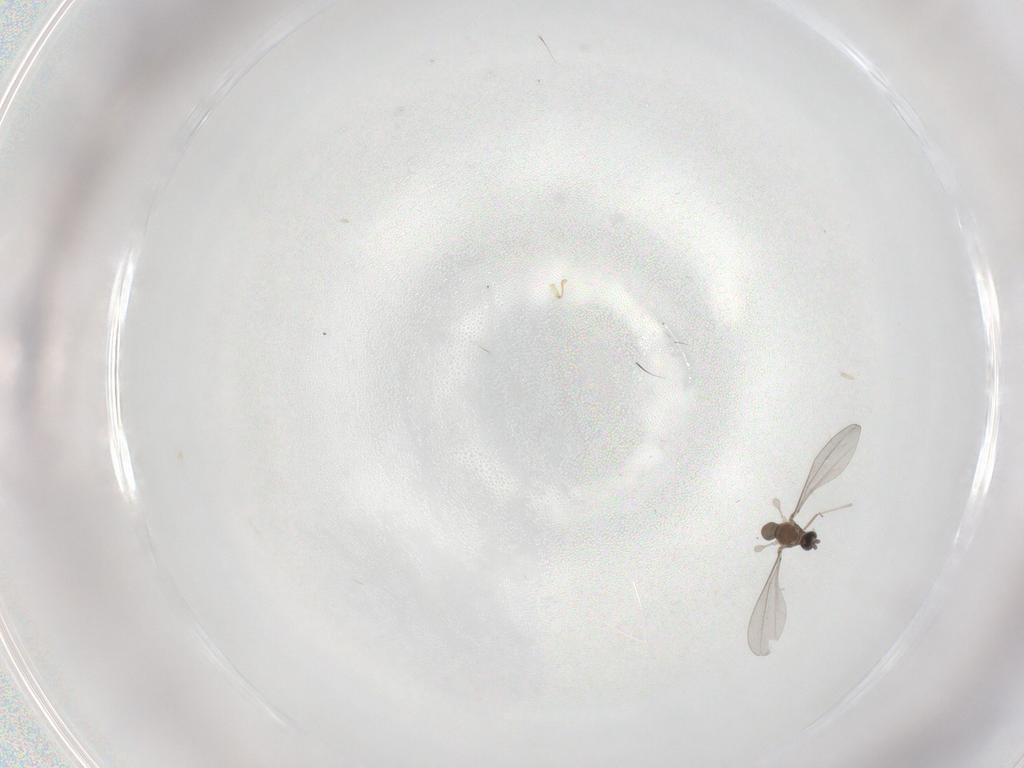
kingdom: Animalia
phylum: Arthropoda
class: Insecta
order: Diptera
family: Cecidomyiidae
